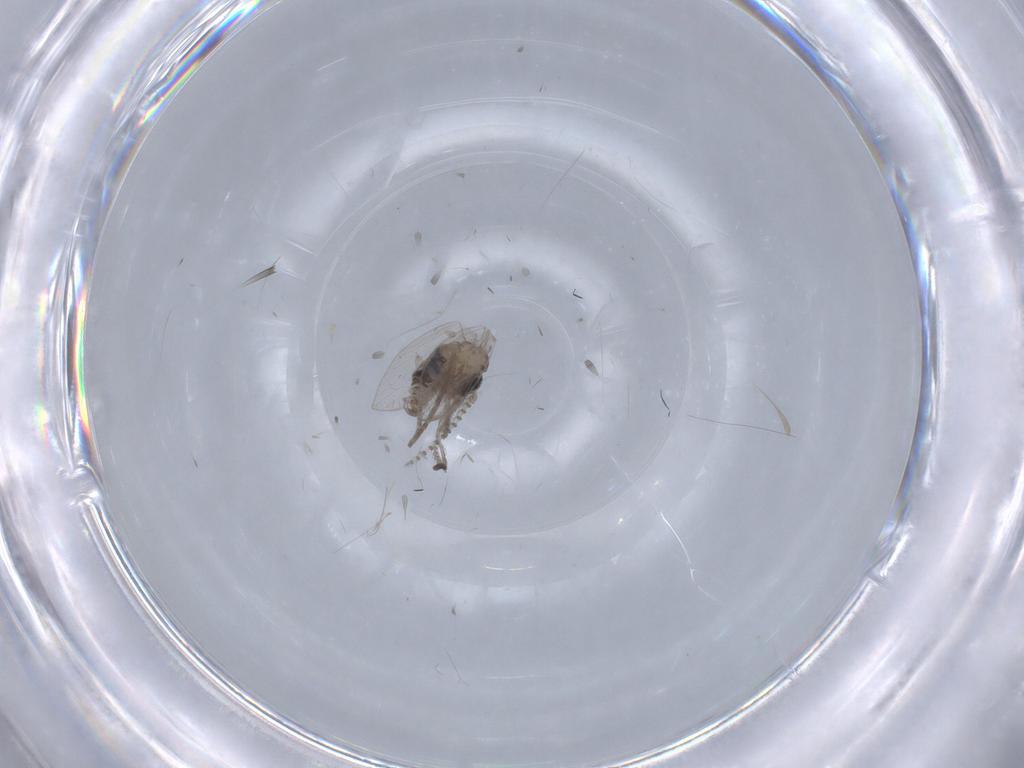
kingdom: Animalia
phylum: Arthropoda
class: Insecta
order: Diptera
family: Psychodidae
